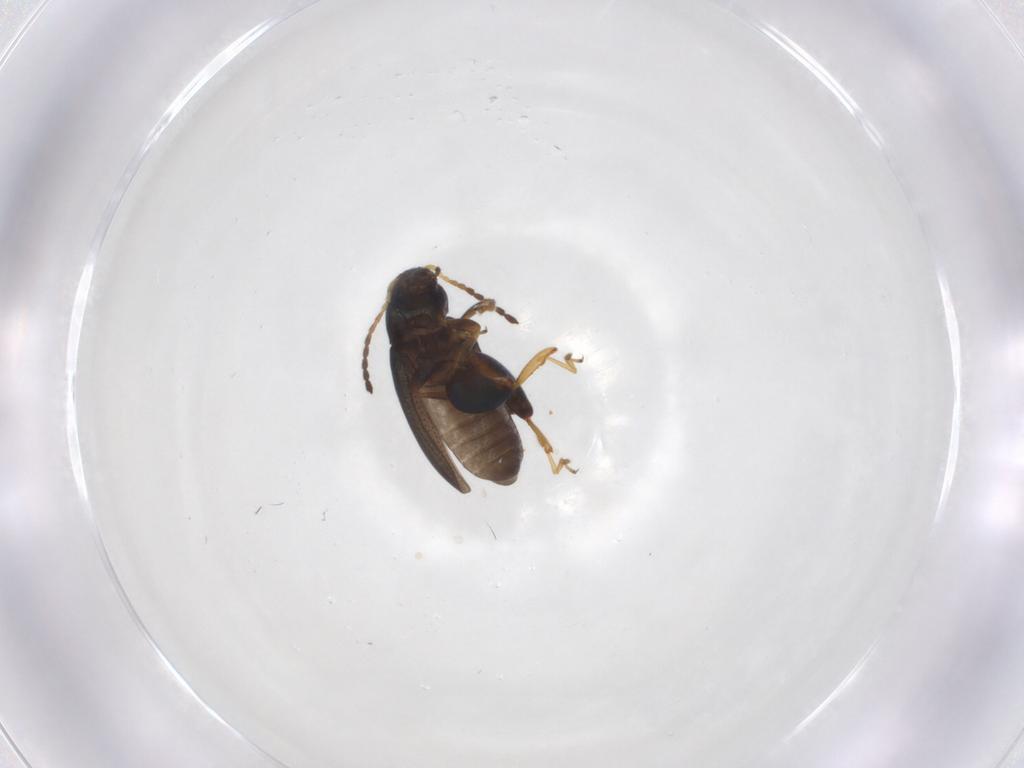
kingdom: Animalia
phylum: Arthropoda
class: Insecta
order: Coleoptera
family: Chrysomelidae
